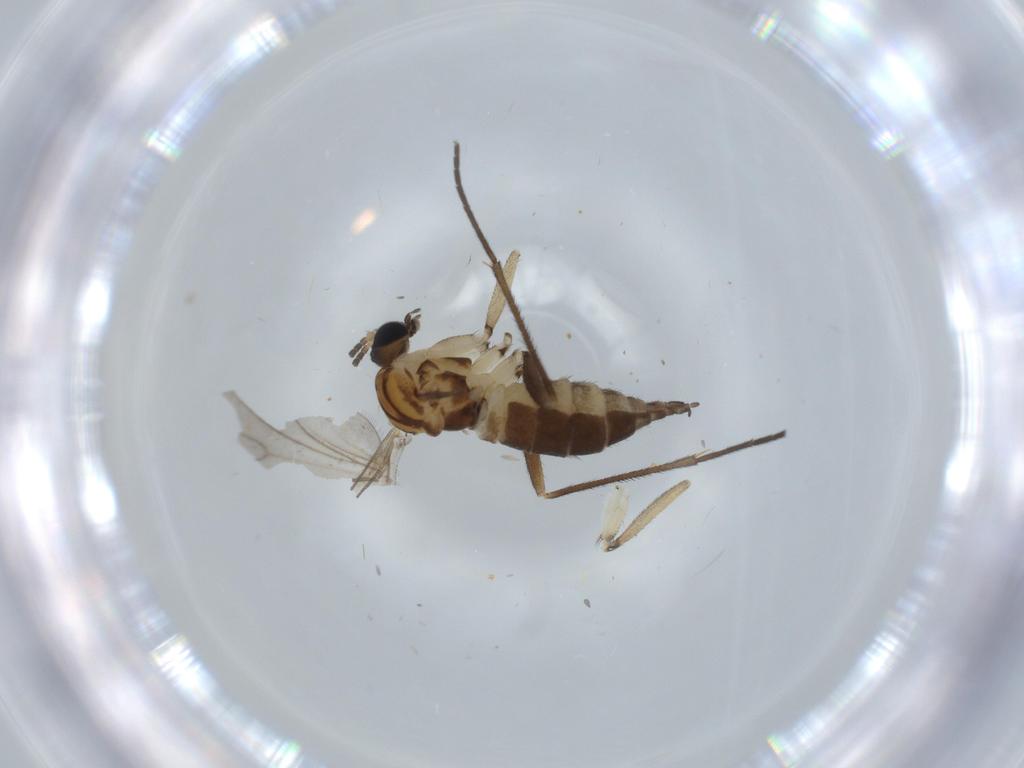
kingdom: Animalia
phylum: Arthropoda
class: Insecta
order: Diptera
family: Sciaridae
